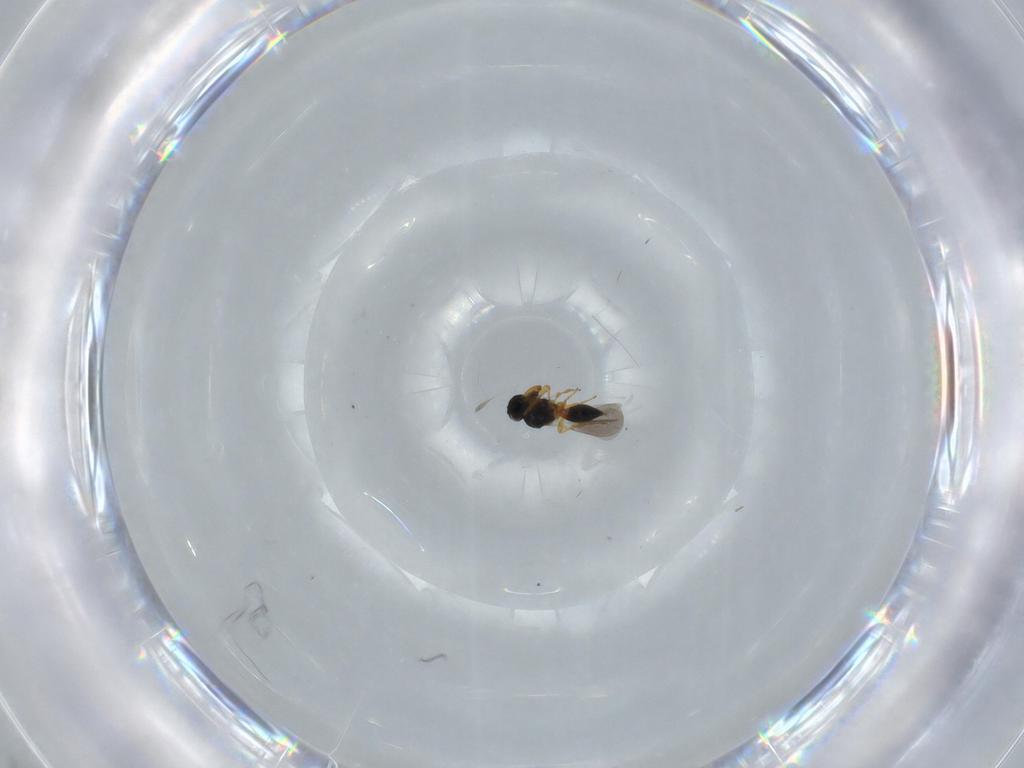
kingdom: Animalia
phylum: Arthropoda
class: Insecta
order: Hymenoptera
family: Platygastridae
